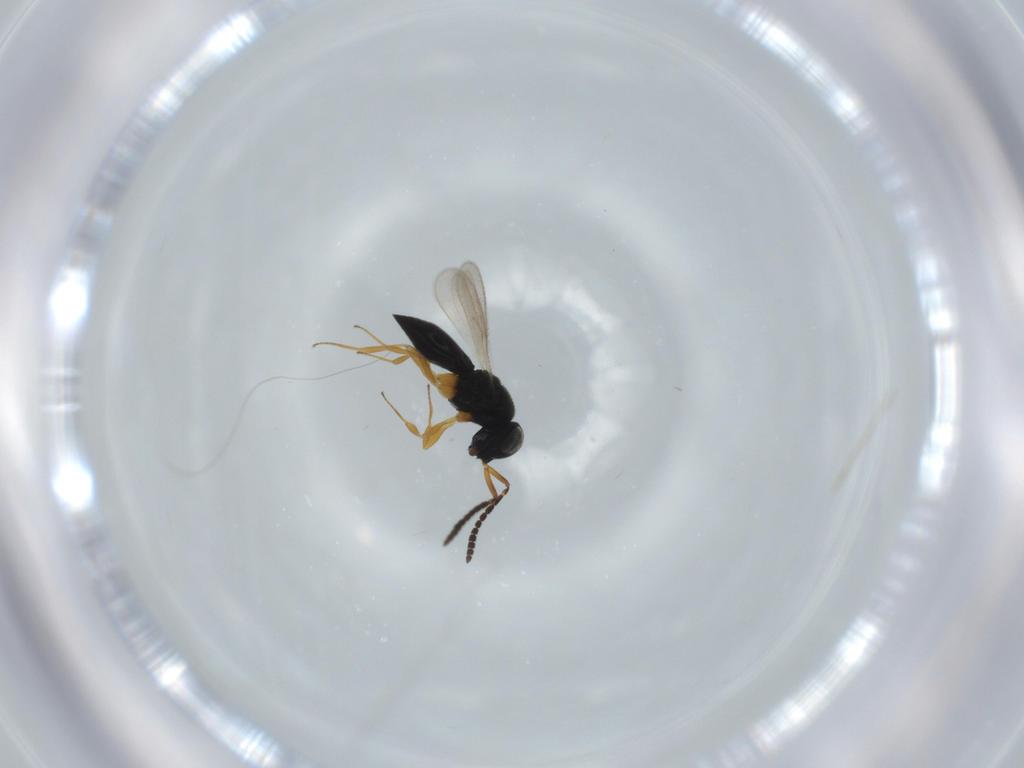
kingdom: Animalia
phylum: Arthropoda
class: Insecta
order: Hymenoptera
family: Scelionidae
